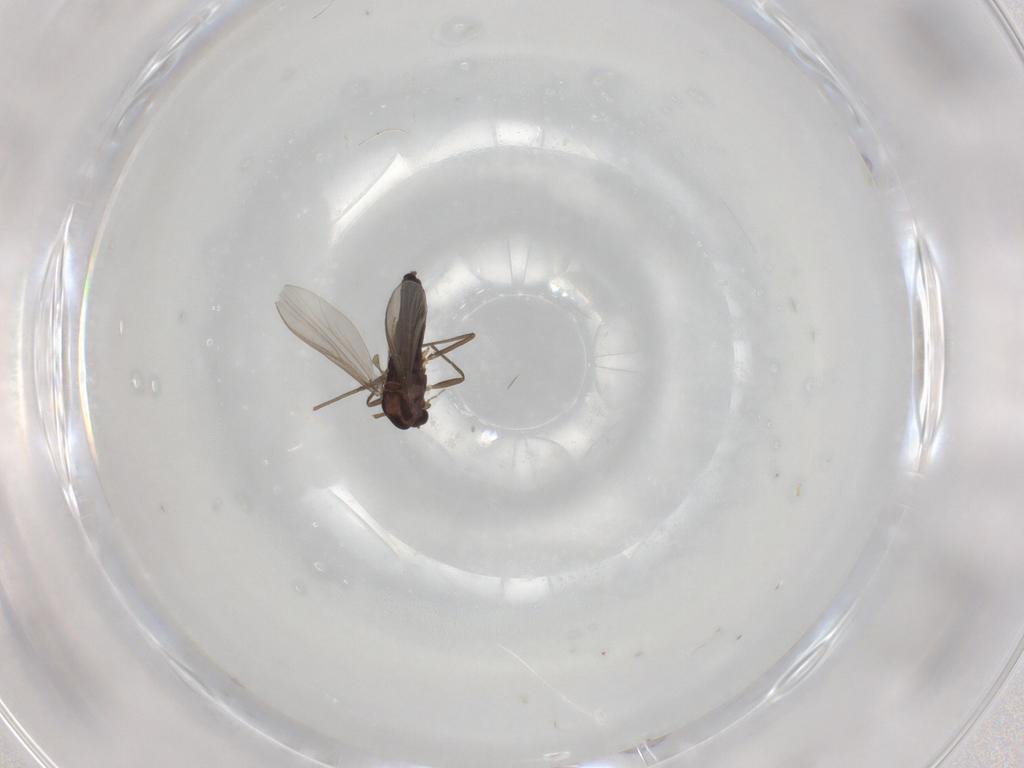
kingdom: Animalia
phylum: Arthropoda
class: Insecta
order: Diptera
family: Chironomidae
